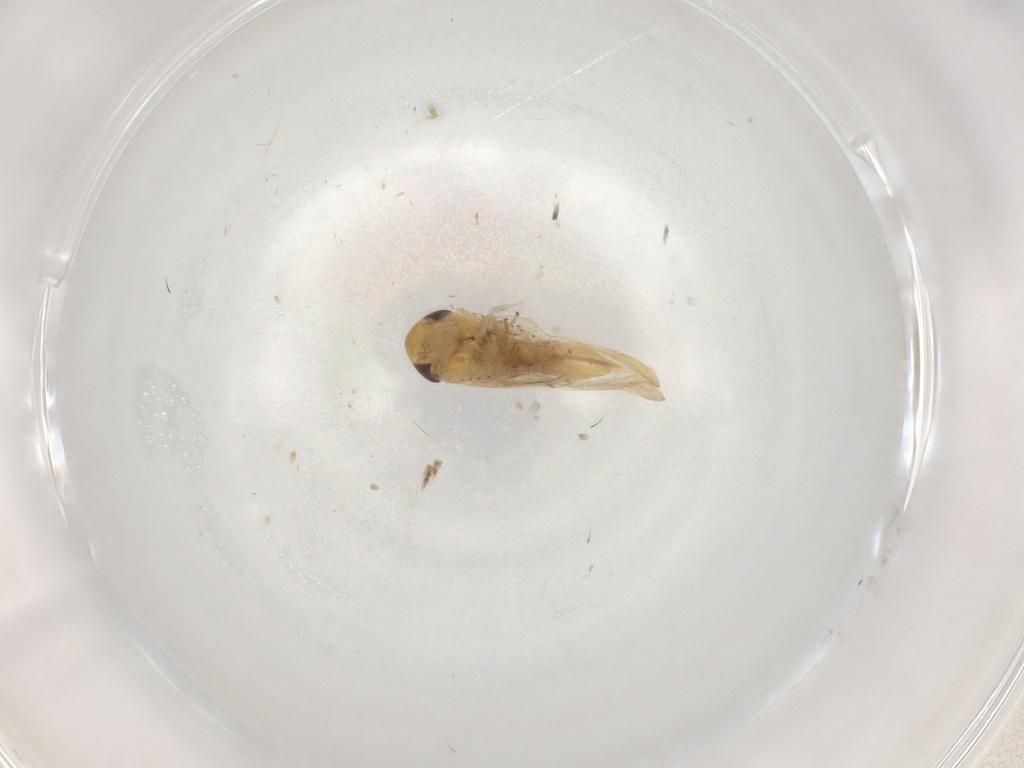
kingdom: Animalia
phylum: Arthropoda
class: Insecta
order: Hemiptera
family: Cicadellidae
